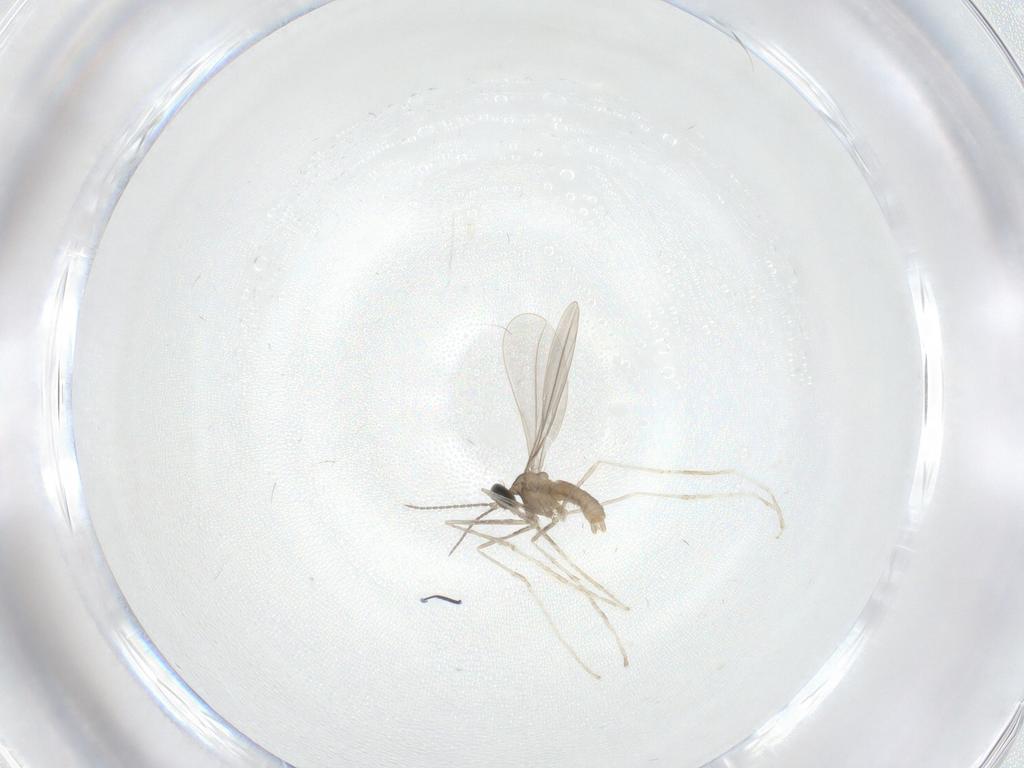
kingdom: Animalia
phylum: Arthropoda
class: Insecta
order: Diptera
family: Cecidomyiidae
